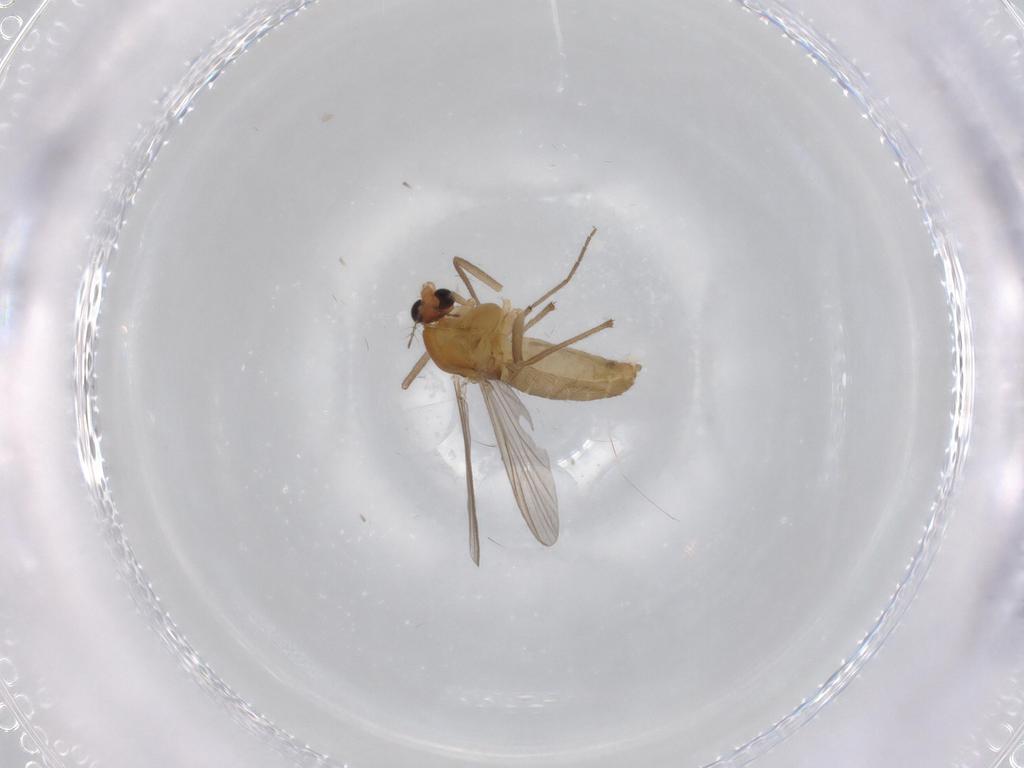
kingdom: Animalia
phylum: Arthropoda
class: Insecta
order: Diptera
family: Chironomidae
